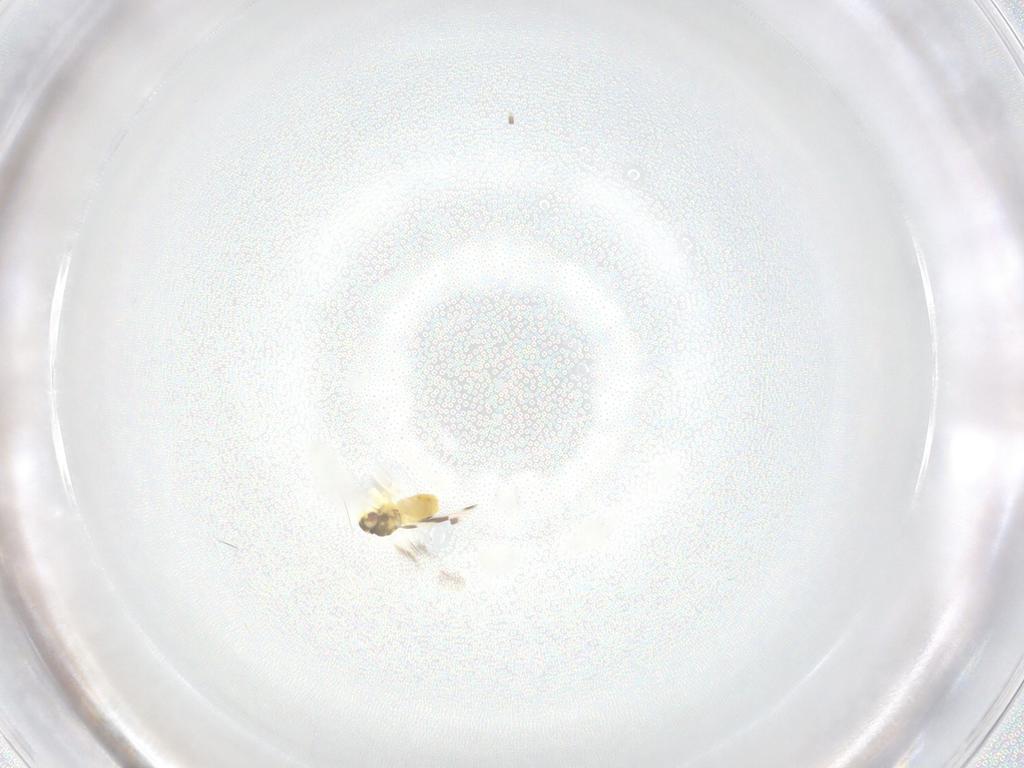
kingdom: Animalia
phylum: Arthropoda
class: Insecta
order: Hemiptera
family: Aleyrodidae
